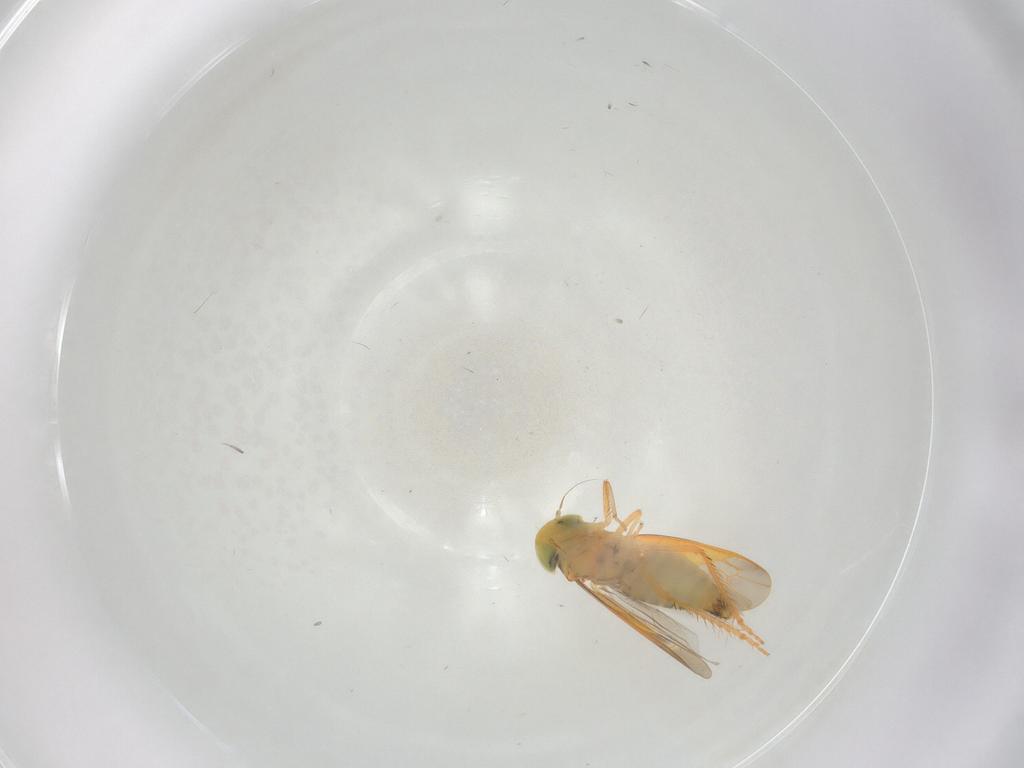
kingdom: Animalia
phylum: Arthropoda
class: Insecta
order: Hemiptera
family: Cicadellidae
